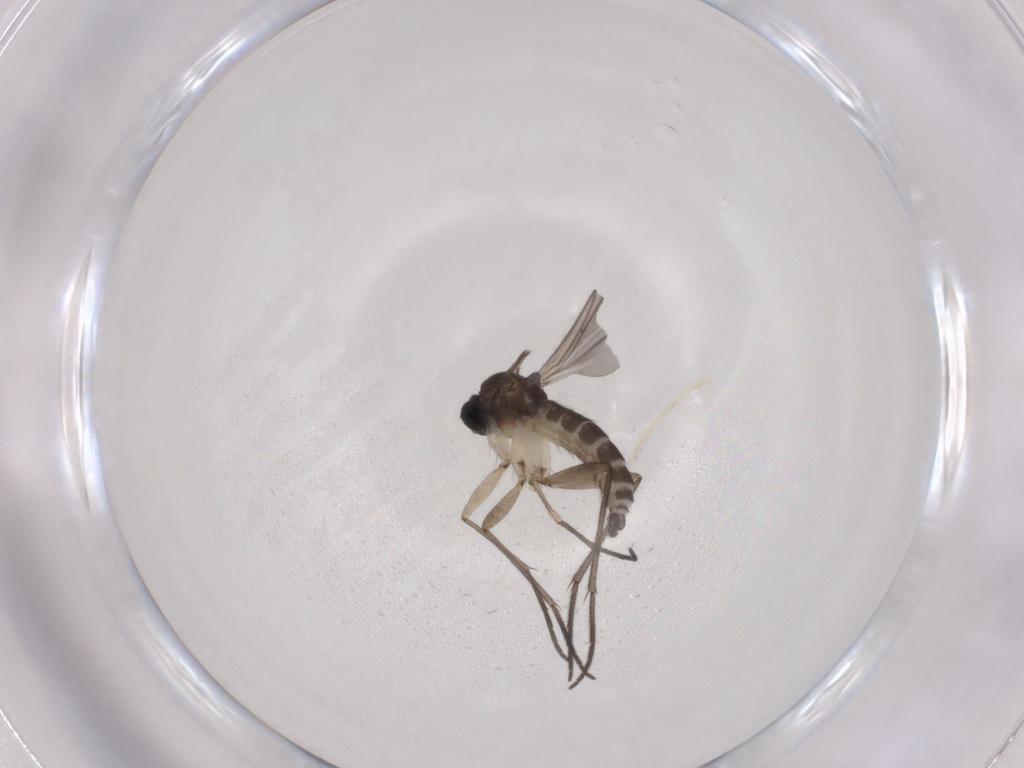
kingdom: Animalia
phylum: Arthropoda
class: Insecta
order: Diptera
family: Sciaridae
